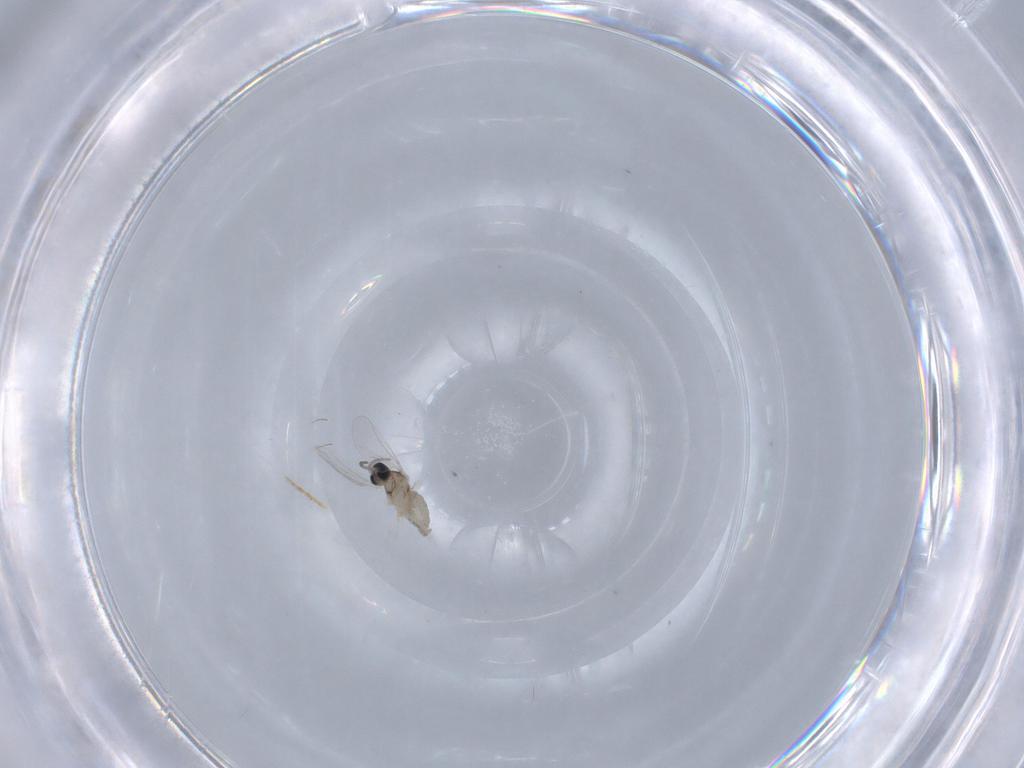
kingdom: Animalia
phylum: Arthropoda
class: Insecta
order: Diptera
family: Cecidomyiidae
